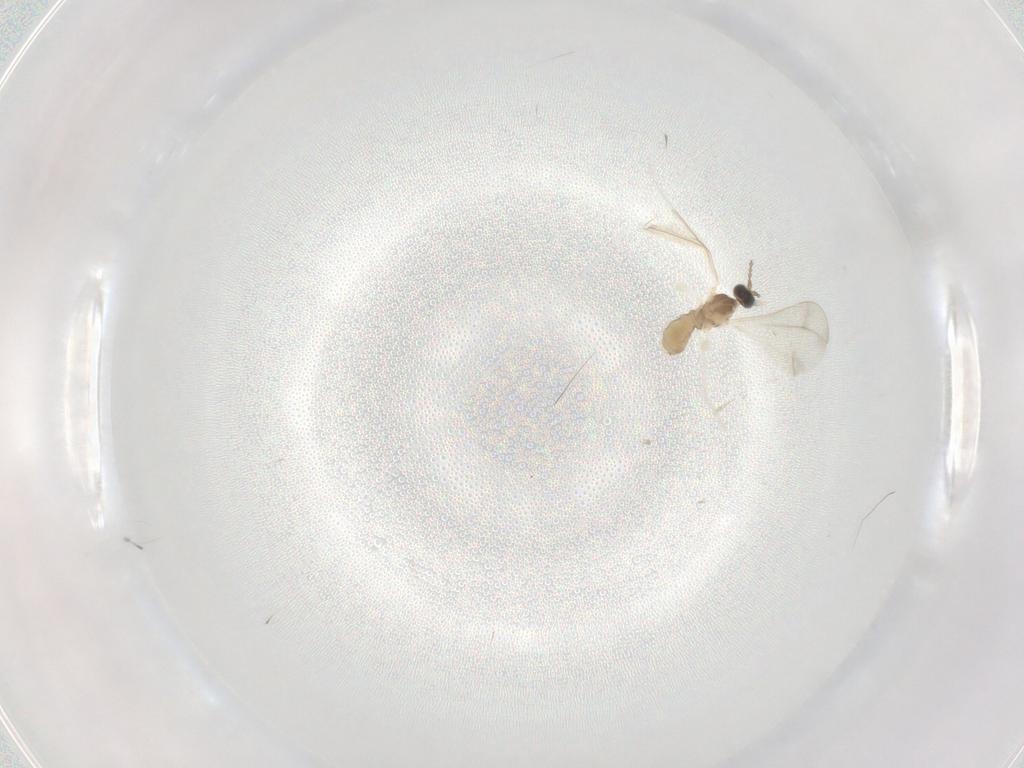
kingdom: Animalia
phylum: Arthropoda
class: Insecta
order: Diptera
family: Cecidomyiidae
